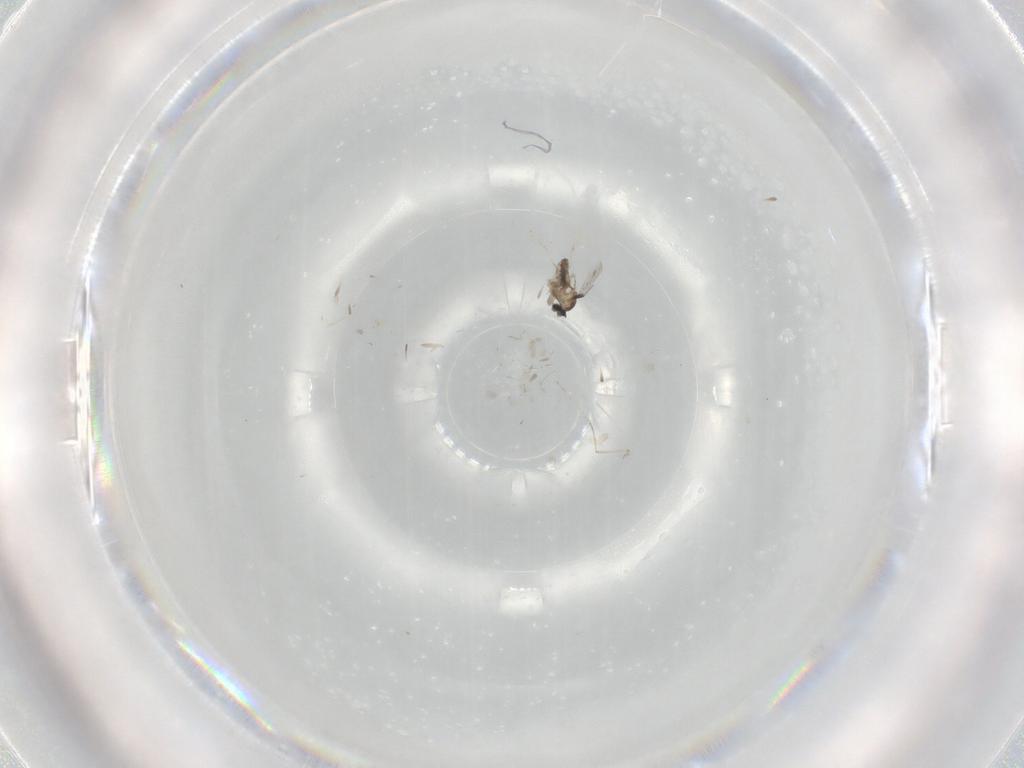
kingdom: Animalia
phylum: Arthropoda
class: Insecta
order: Diptera
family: Cecidomyiidae
